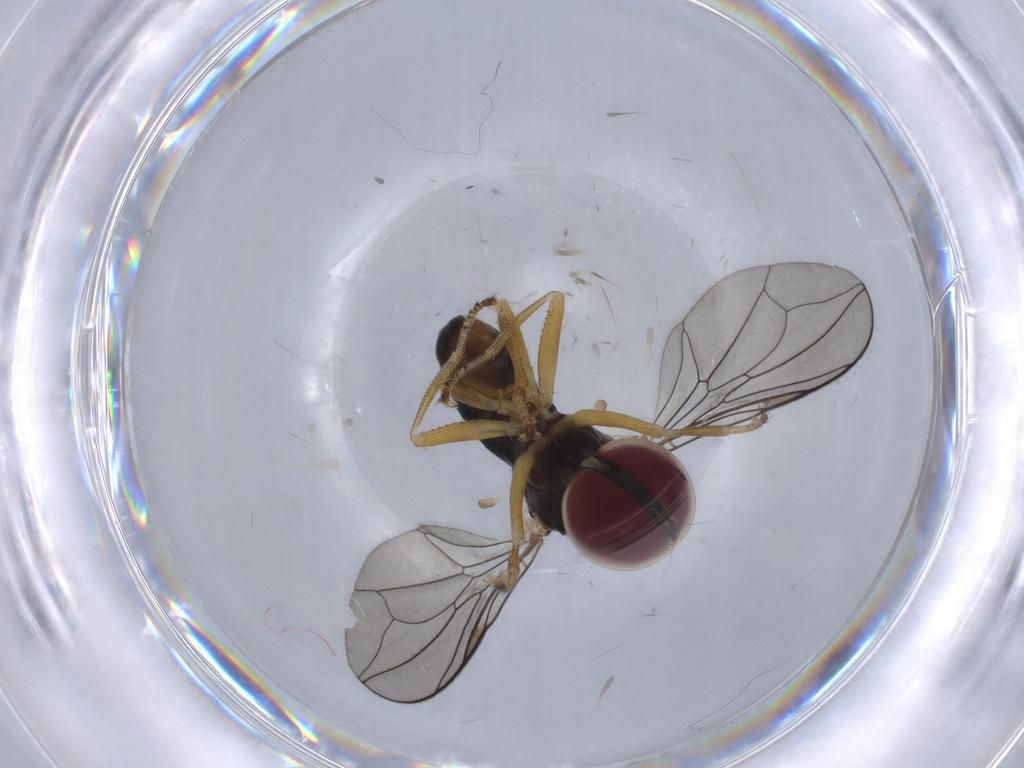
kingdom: Animalia
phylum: Arthropoda
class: Insecta
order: Diptera
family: Pipunculidae
